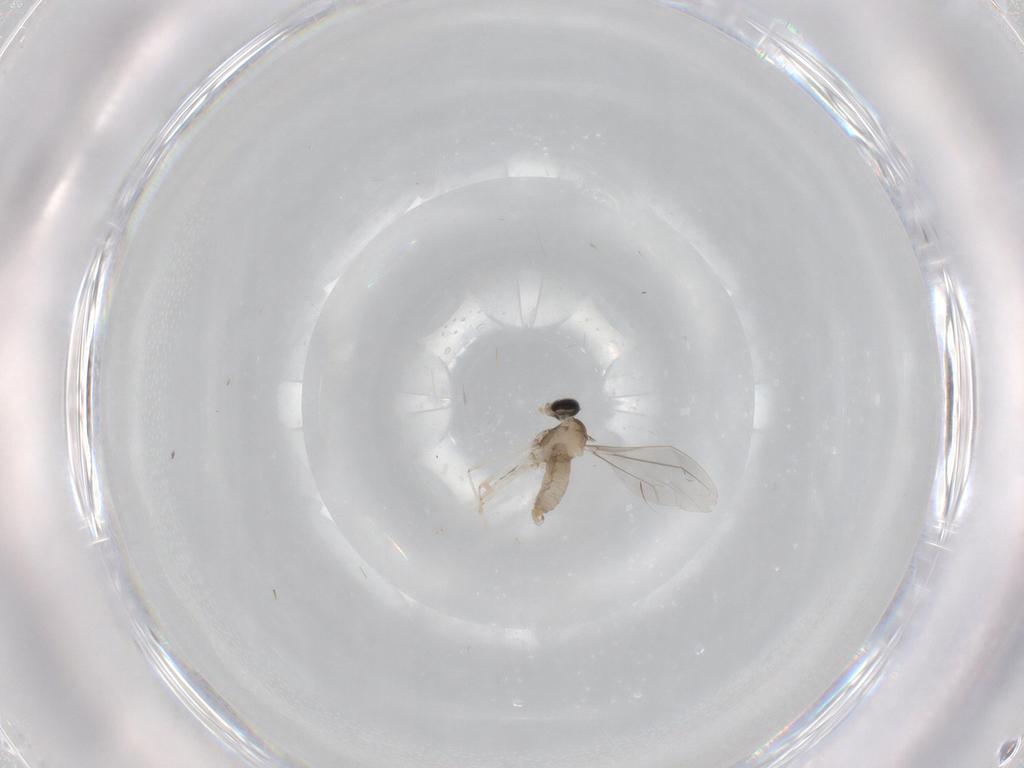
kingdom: Animalia
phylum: Arthropoda
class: Insecta
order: Diptera
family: Cecidomyiidae
